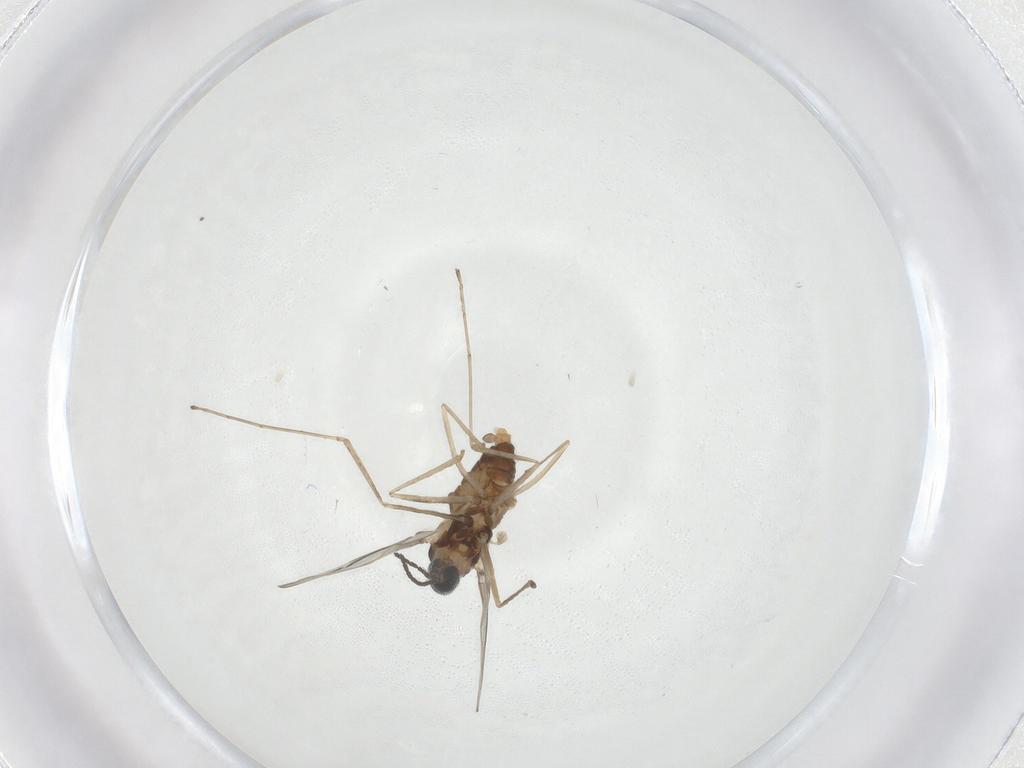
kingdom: Animalia
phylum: Arthropoda
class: Insecta
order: Diptera
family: Cecidomyiidae
